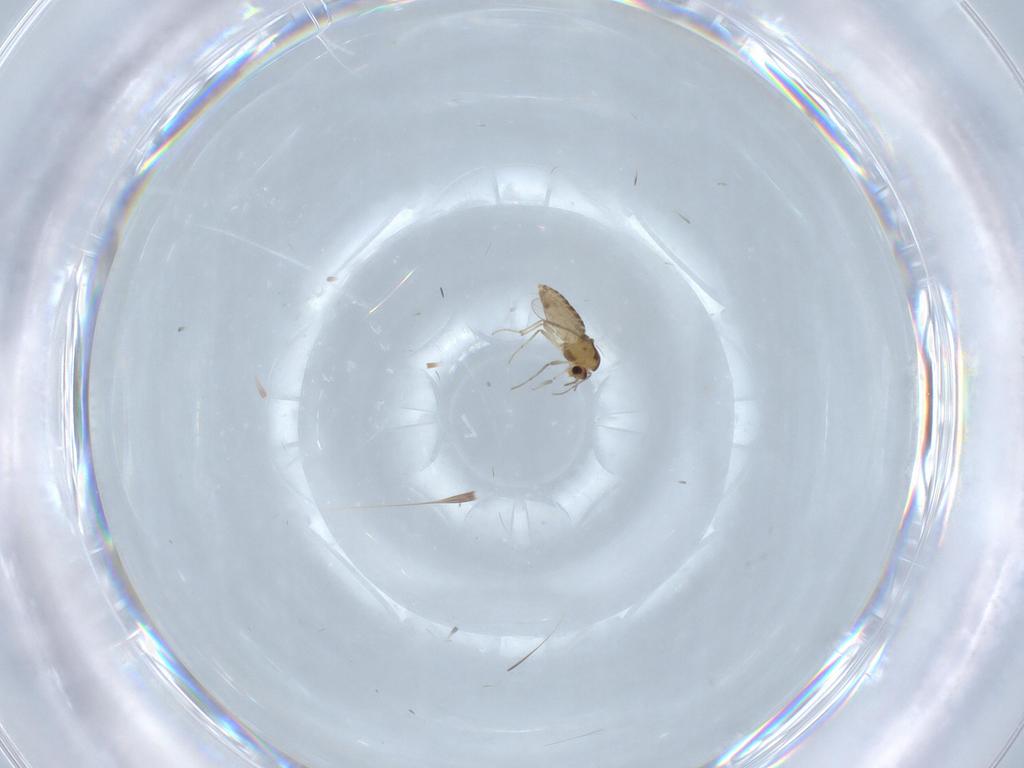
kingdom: Animalia
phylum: Arthropoda
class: Insecta
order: Diptera
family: Chironomidae
